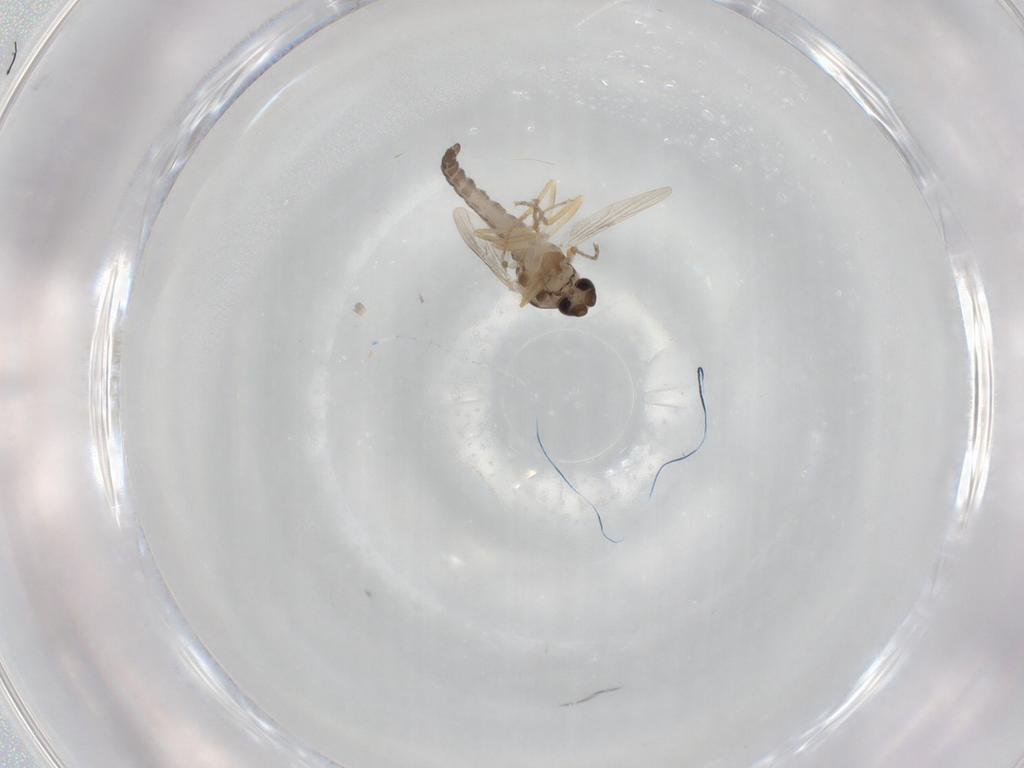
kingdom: Animalia
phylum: Arthropoda
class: Insecta
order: Diptera
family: Ceratopogonidae
